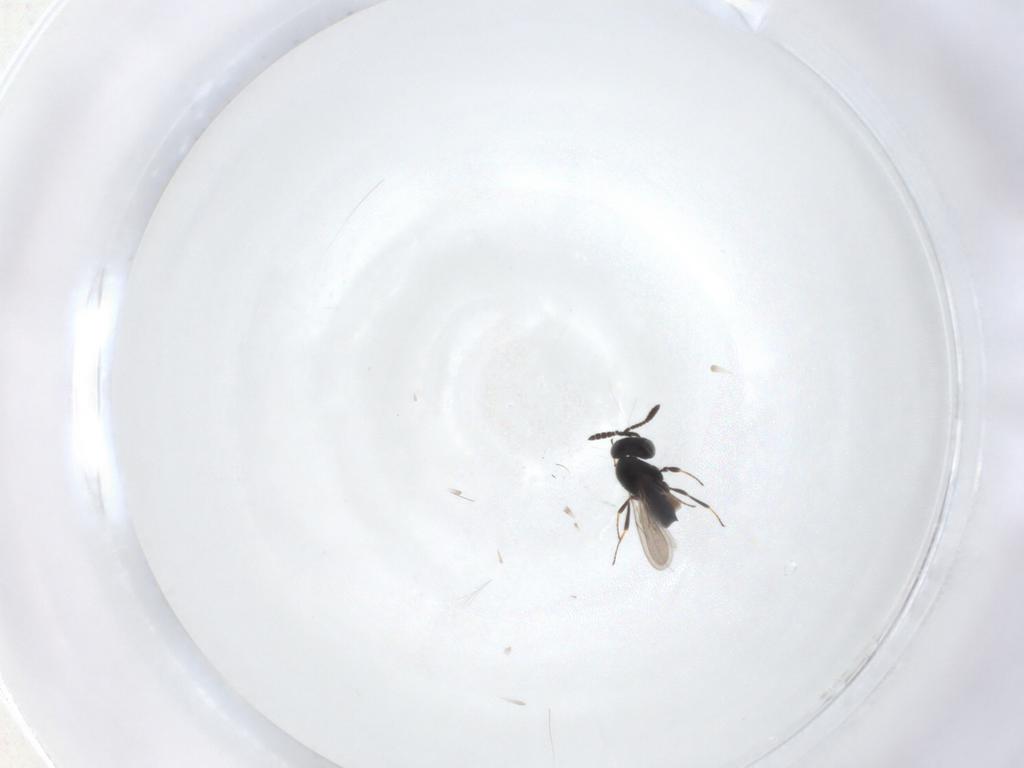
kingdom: Animalia
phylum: Arthropoda
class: Insecta
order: Hymenoptera
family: Scelionidae
